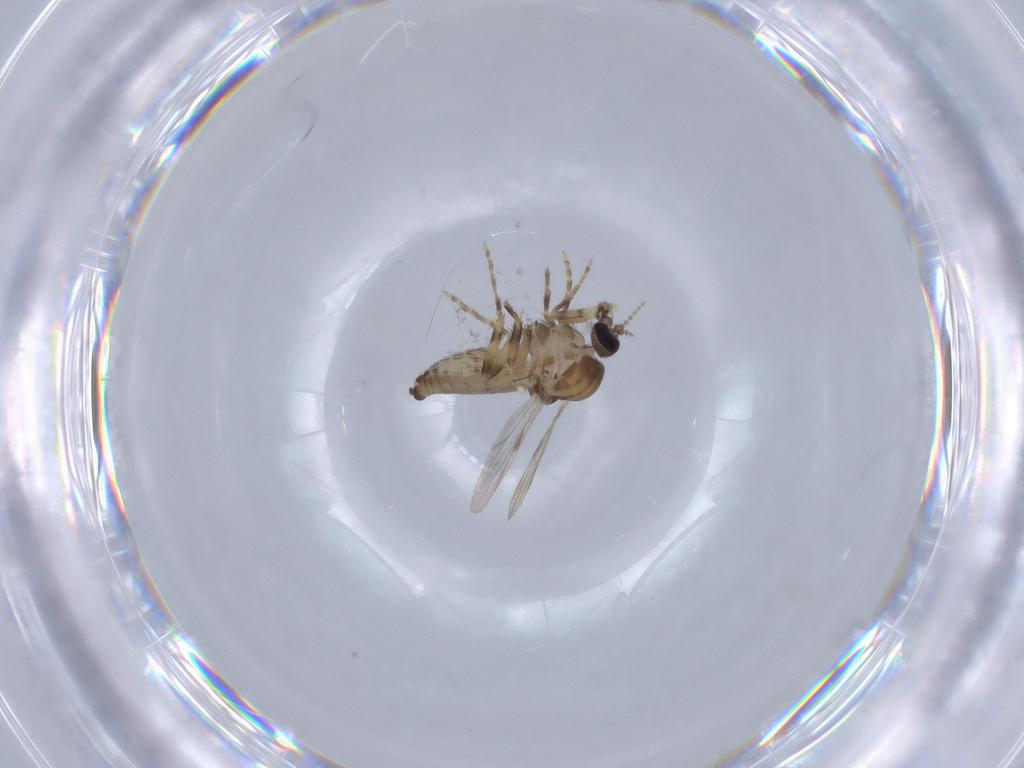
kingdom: Animalia
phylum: Arthropoda
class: Insecta
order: Diptera
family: Ceratopogonidae
